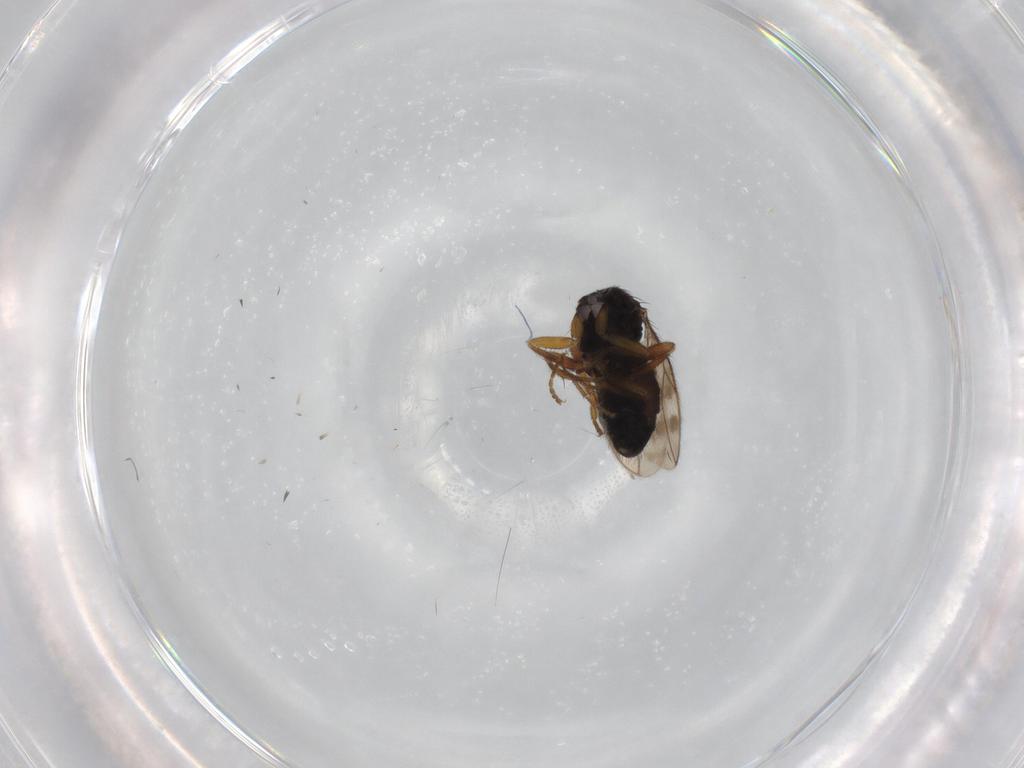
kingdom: Animalia
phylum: Arthropoda
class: Insecta
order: Diptera
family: Sphaeroceridae
